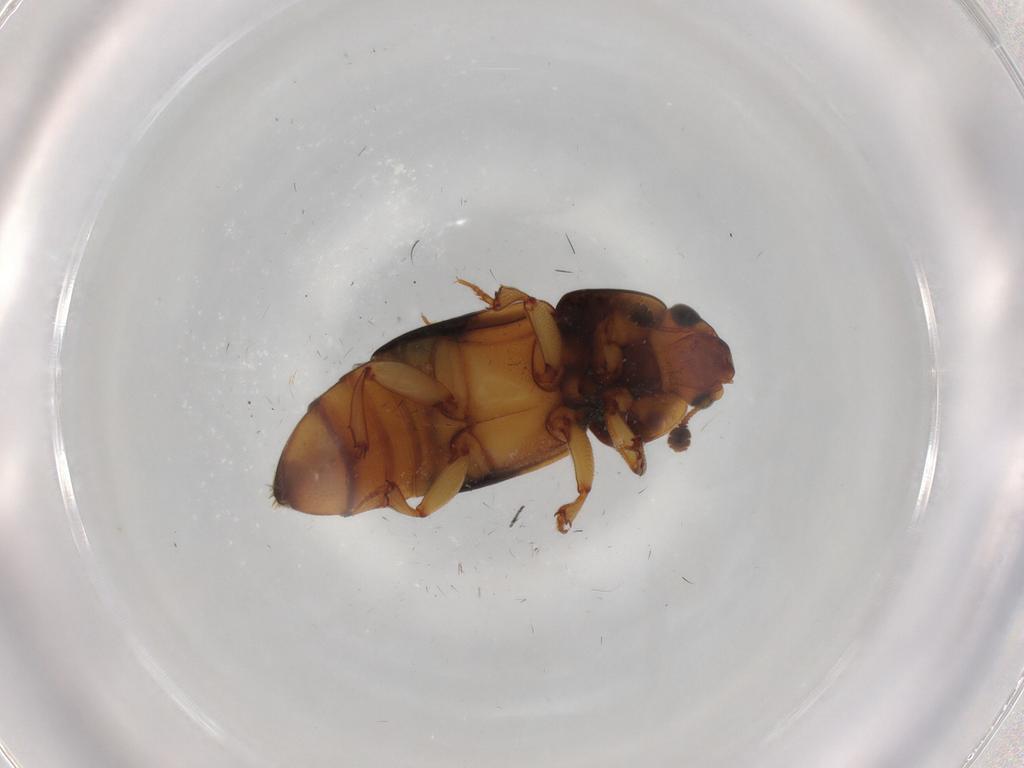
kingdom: Animalia
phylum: Arthropoda
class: Insecta
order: Coleoptera
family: Nitidulidae
